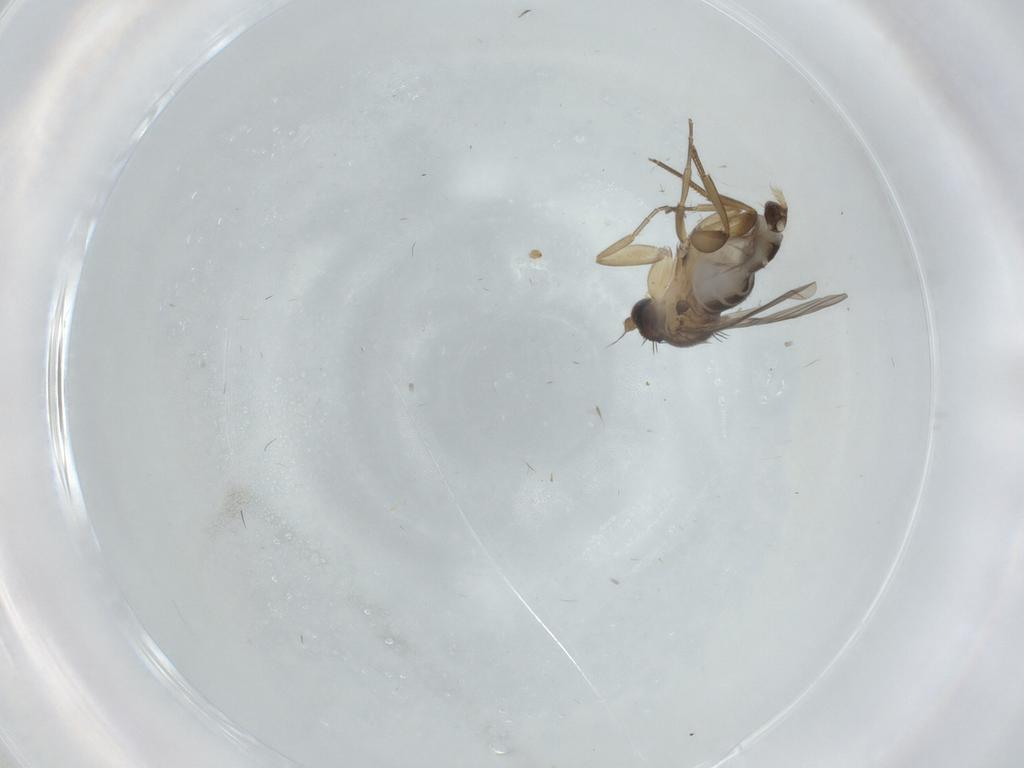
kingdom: Animalia
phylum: Arthropoda
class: Insecta
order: Diptera
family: Phoridae
